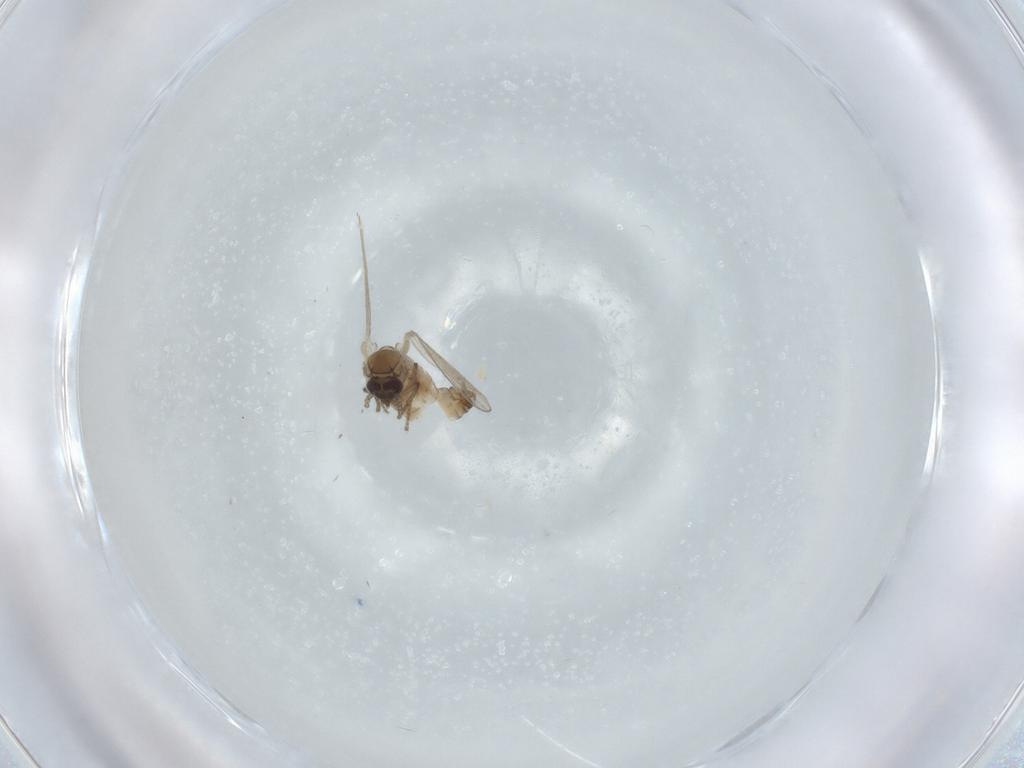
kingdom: Animalia
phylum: Arthropoda
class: Insecta
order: Diptera
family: Psychodidae
